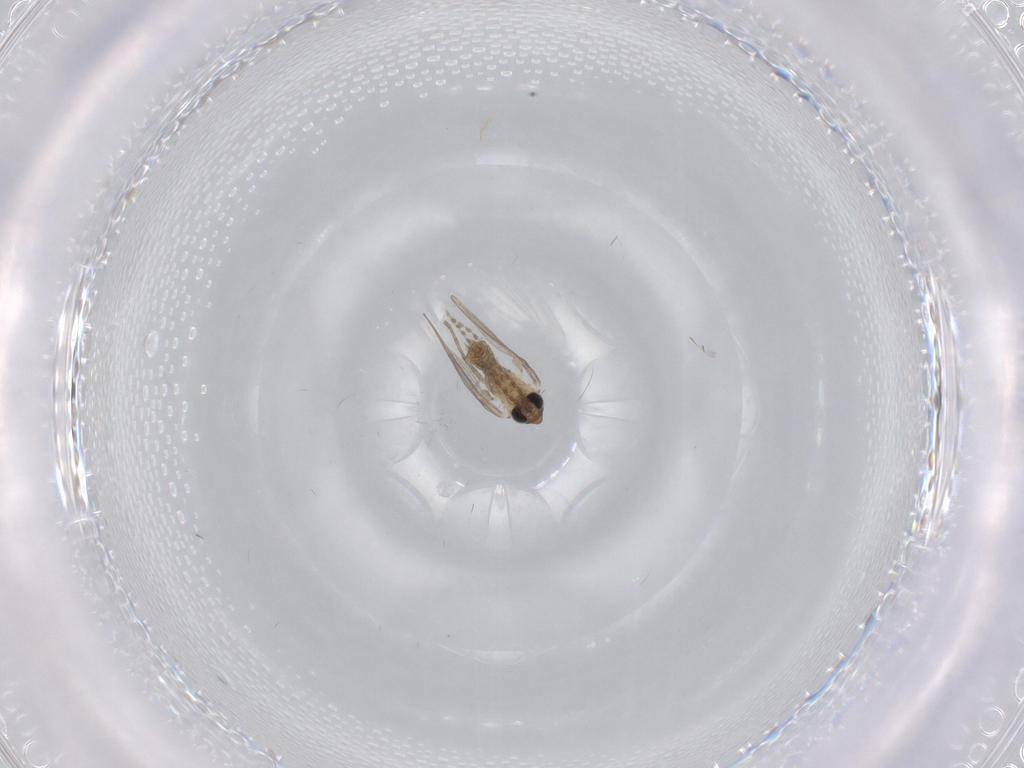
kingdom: Animalia
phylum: Arthropoda
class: Insecta
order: Diptera
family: Psychodidae
